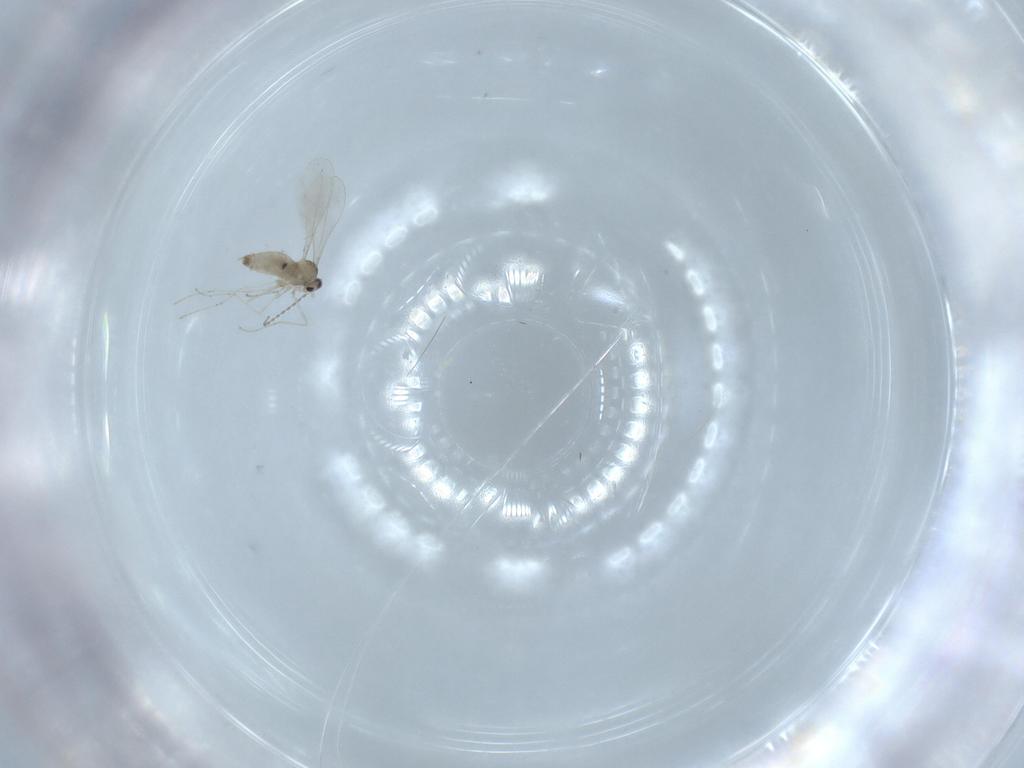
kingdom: Animalia
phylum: Arthropoda
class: Insecta
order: Diptera
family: Cecidomyiidae
